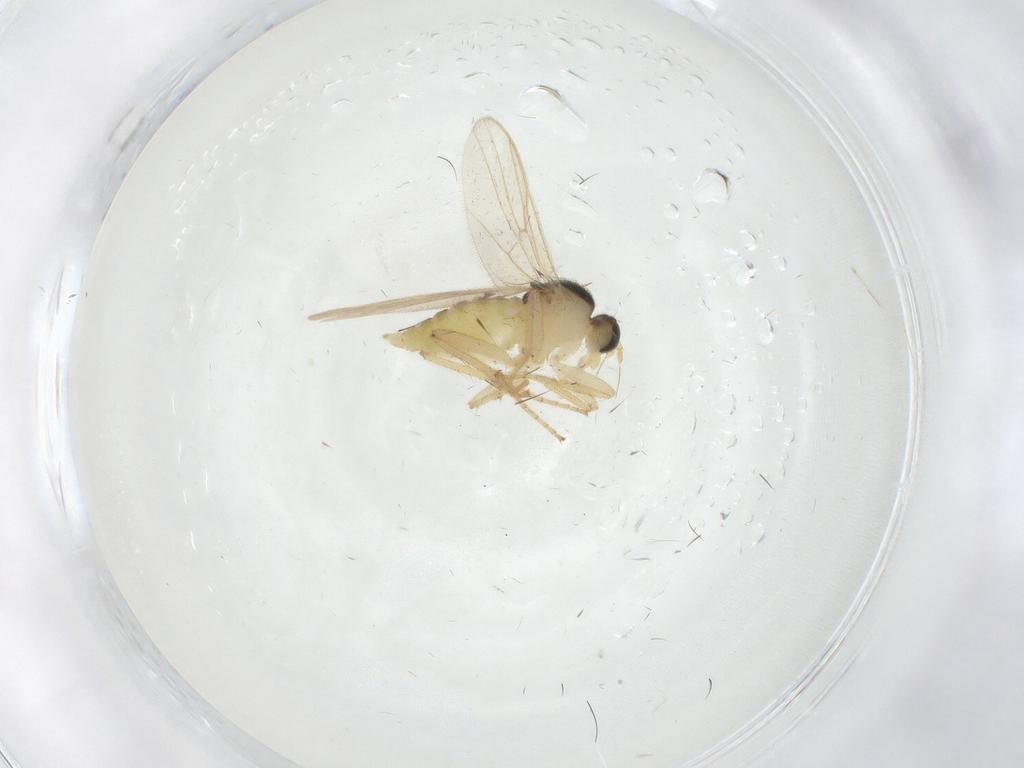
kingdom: Animalia
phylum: Arthropoda
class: Insecta
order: Diptera
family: Hybotidae
